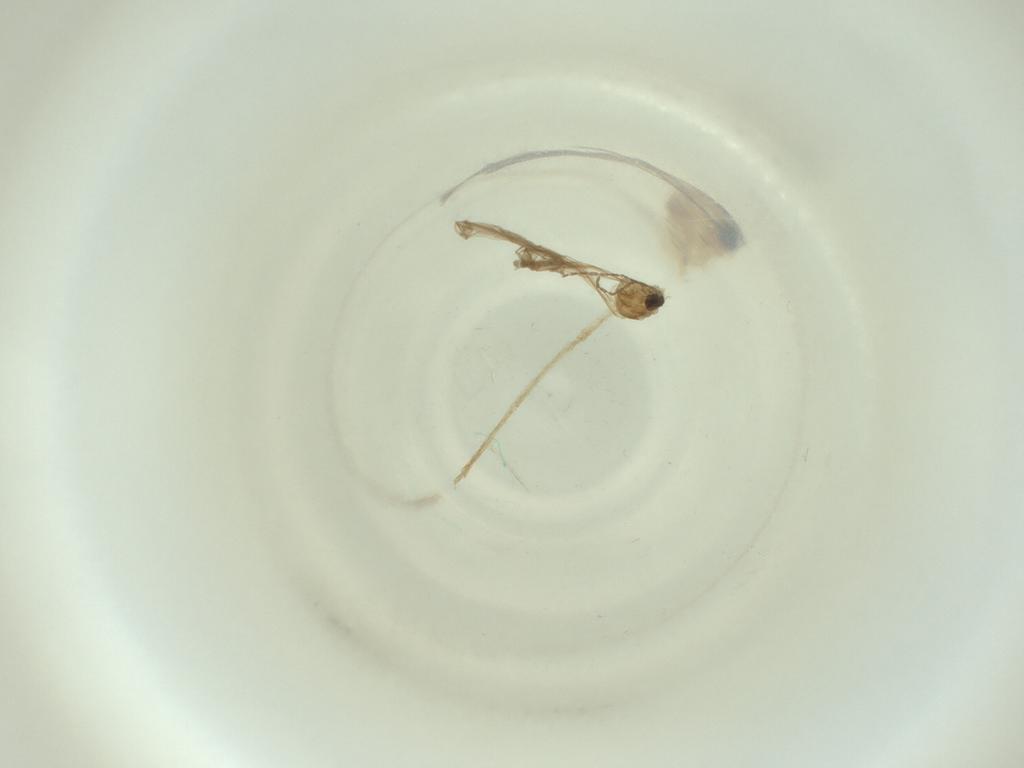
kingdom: Animalia
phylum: Arthropoda
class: Insecta
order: Diptera
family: Cecidomyiidae
